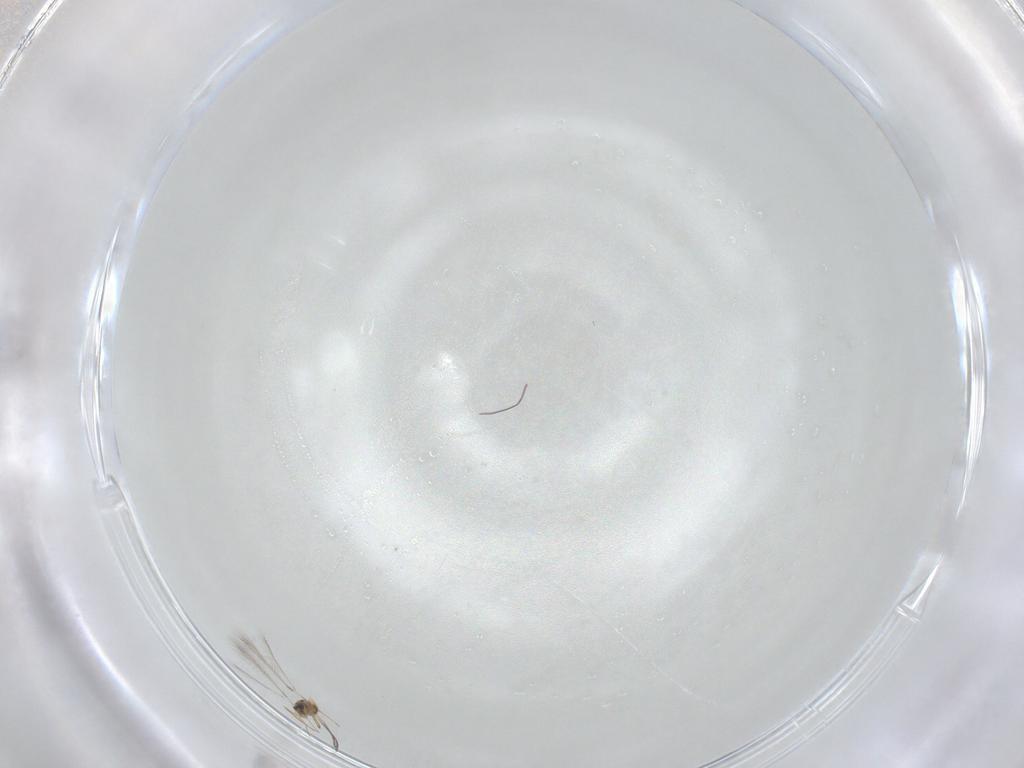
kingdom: Animalia
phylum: Arthropoda
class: Insecta
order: Hymenoptera
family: Mymaridae
